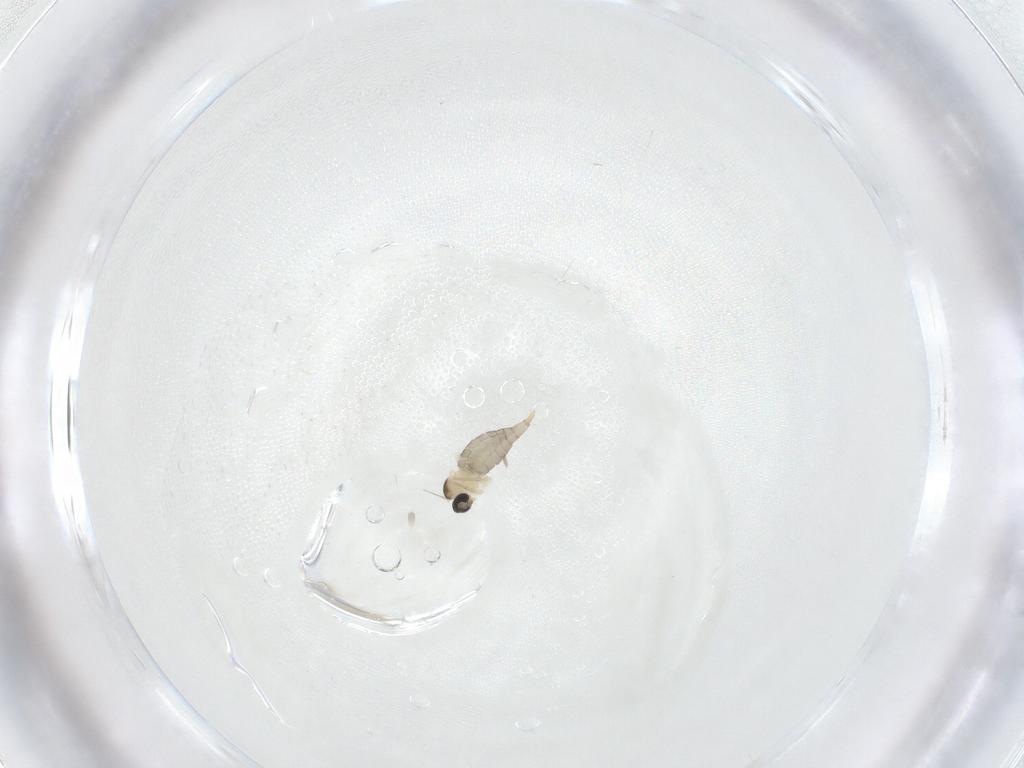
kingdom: Animalia
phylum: Arthropoda
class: Insecta
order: Diptera
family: Cecidomyiidae
